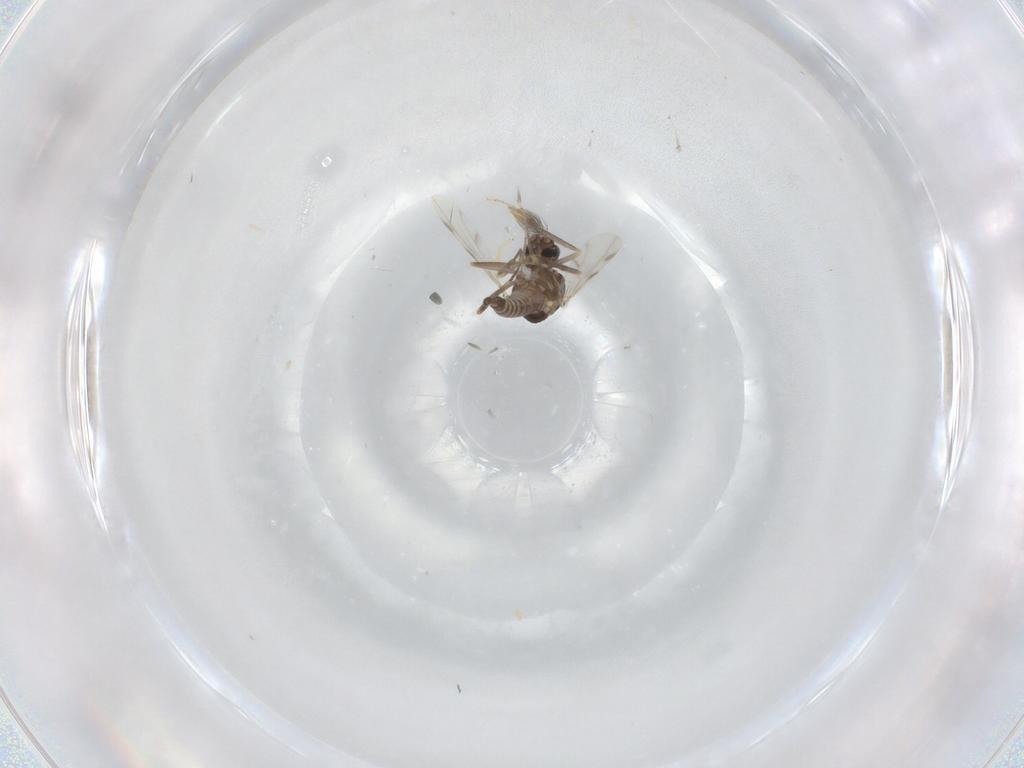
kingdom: Animalia
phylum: Arthropoda
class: Insecta
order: Diptera
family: Ceratopogonidae
